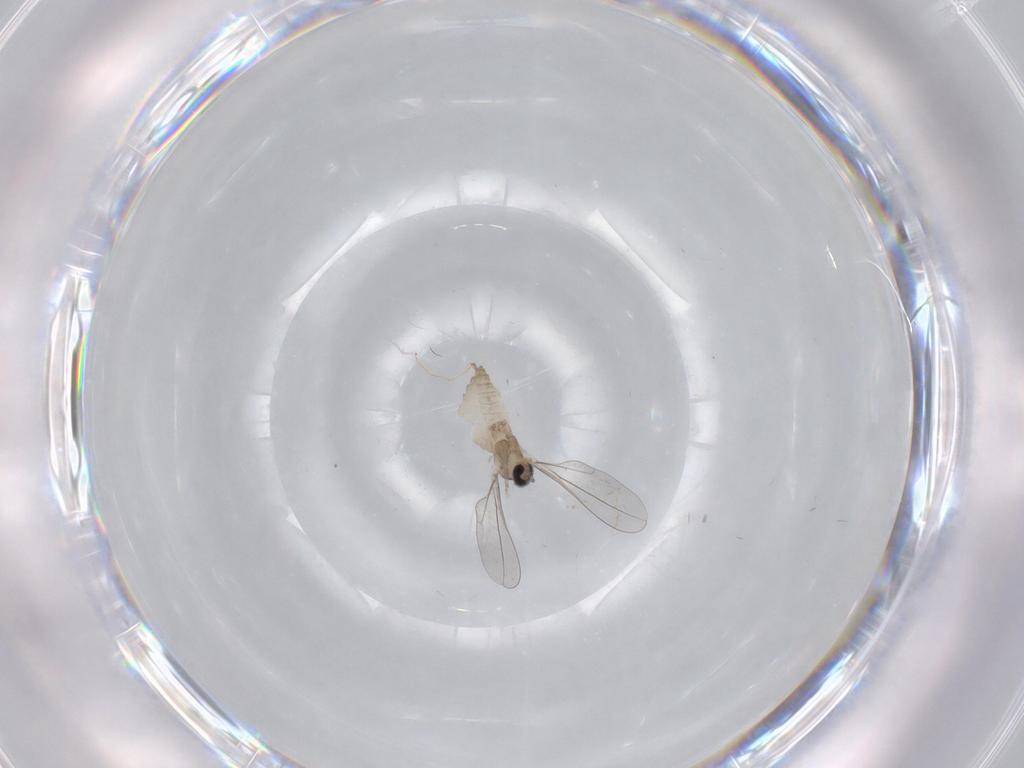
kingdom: Animalia
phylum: Arthropoda
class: Insecta
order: Diptera
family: Cecidomyiidae
